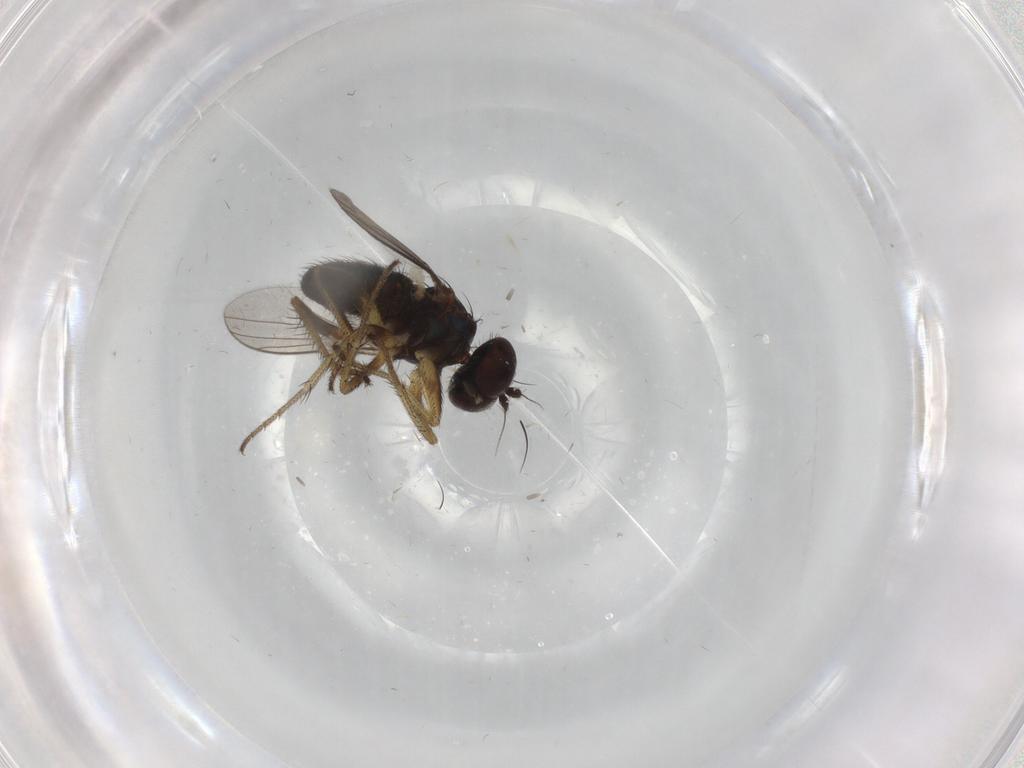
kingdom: Animalia
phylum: Arthropoda
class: Insecta
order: Diptera
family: Dolichopodidae
